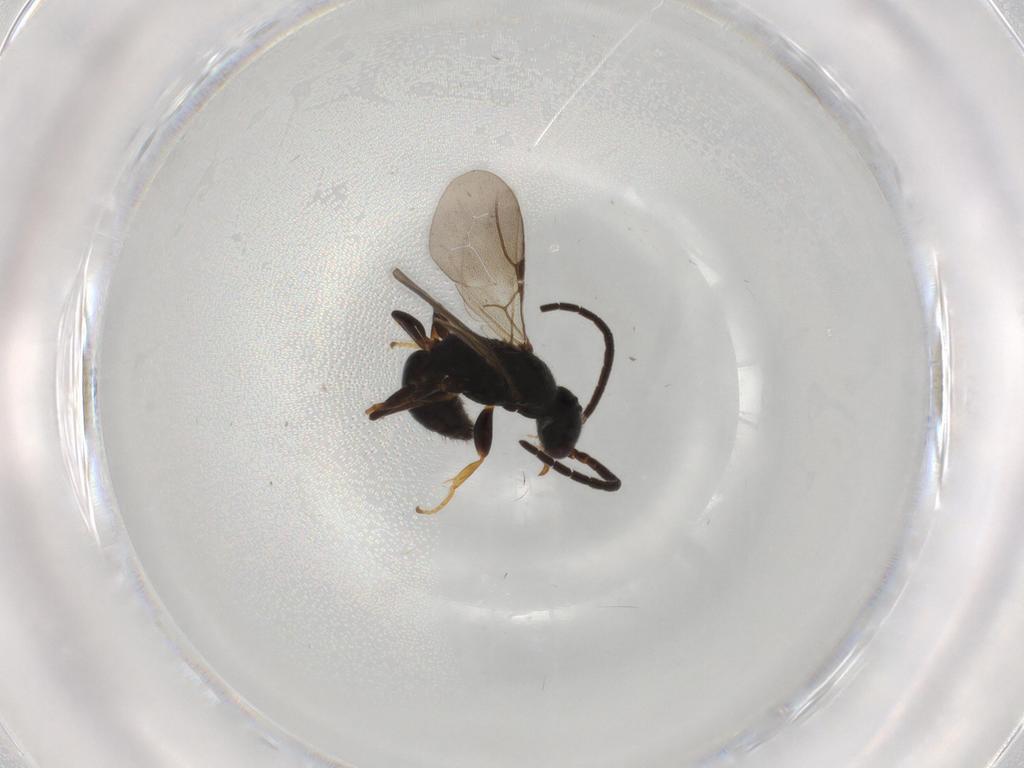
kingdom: Animalia
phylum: Arthropoda
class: Insecta
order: Hymenoptera
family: Bethylidae
